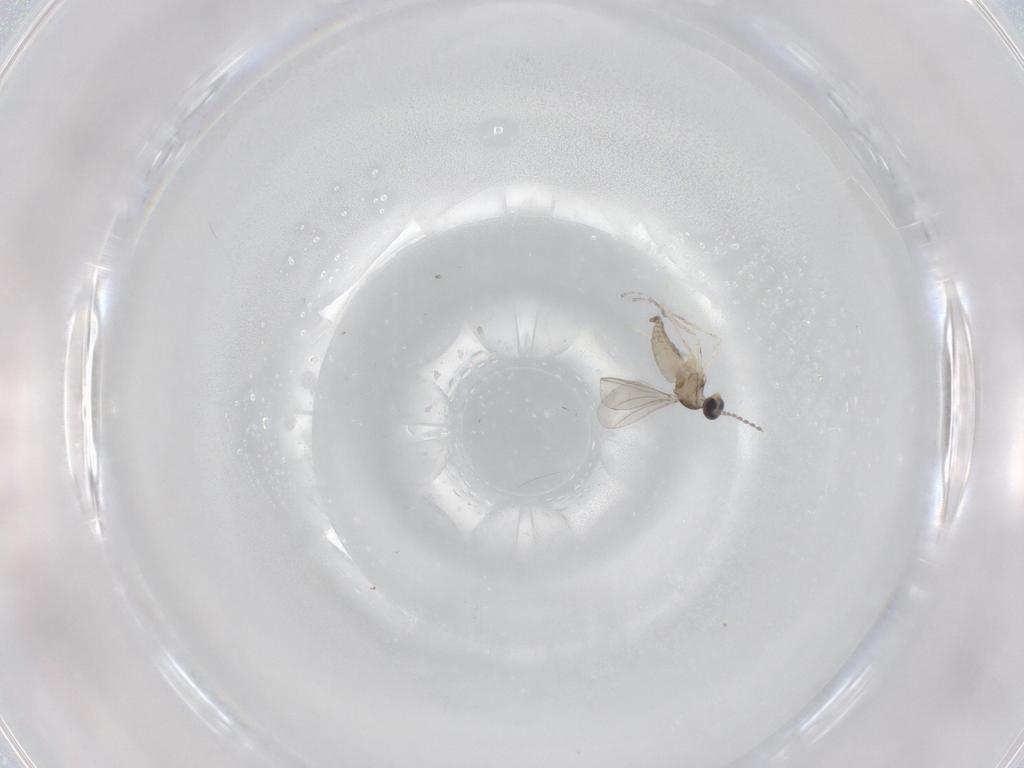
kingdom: Animalia
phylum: Arthropoda
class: Insecta
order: Diptera
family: Cecidomyiidae
